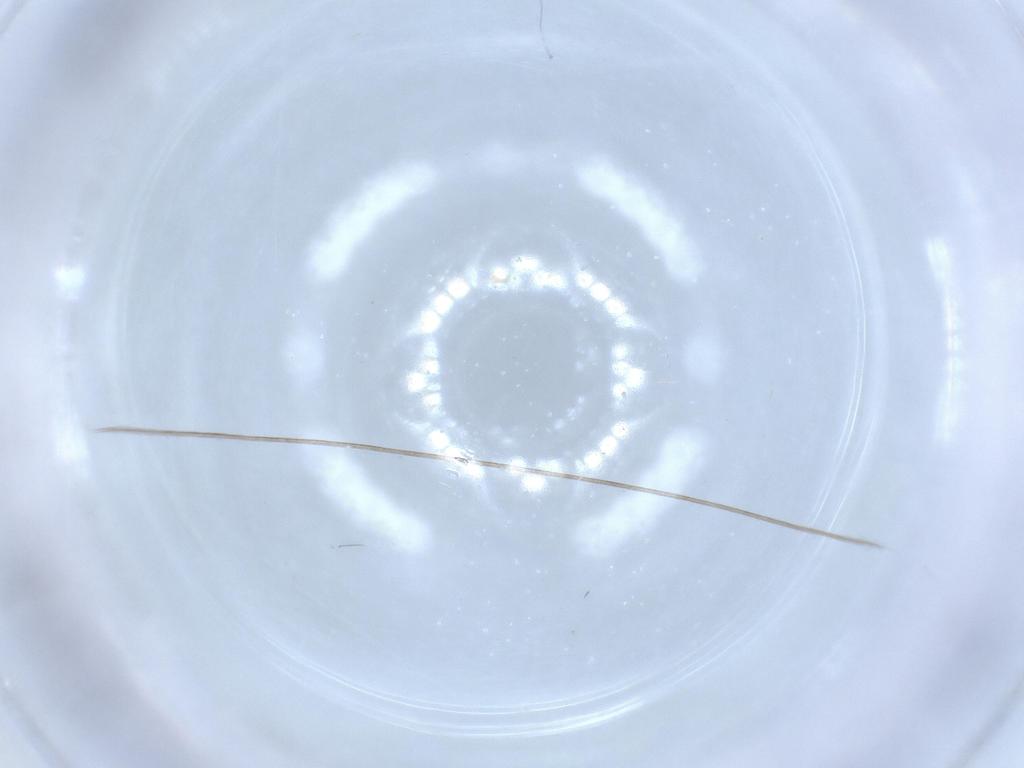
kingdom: Animalia
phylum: Arthropoda
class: Insecta
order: Coleoptera
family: Smicripidae
